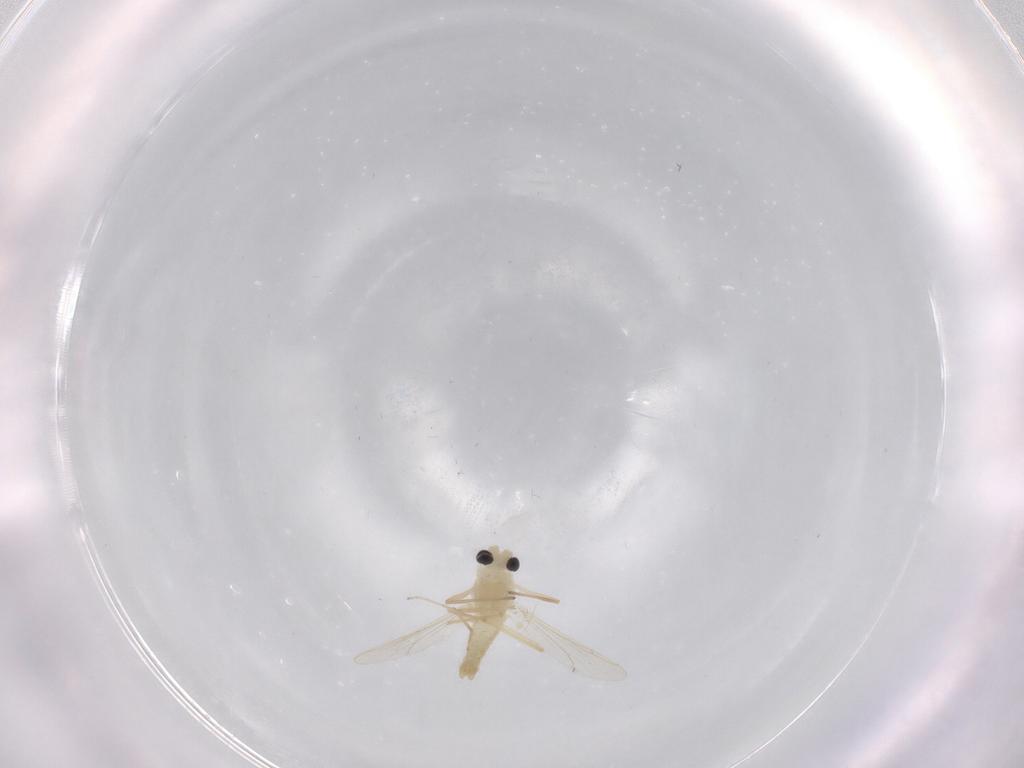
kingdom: Animalia
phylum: Arthropoda
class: Insecta
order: Diptera
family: Chironomidae
